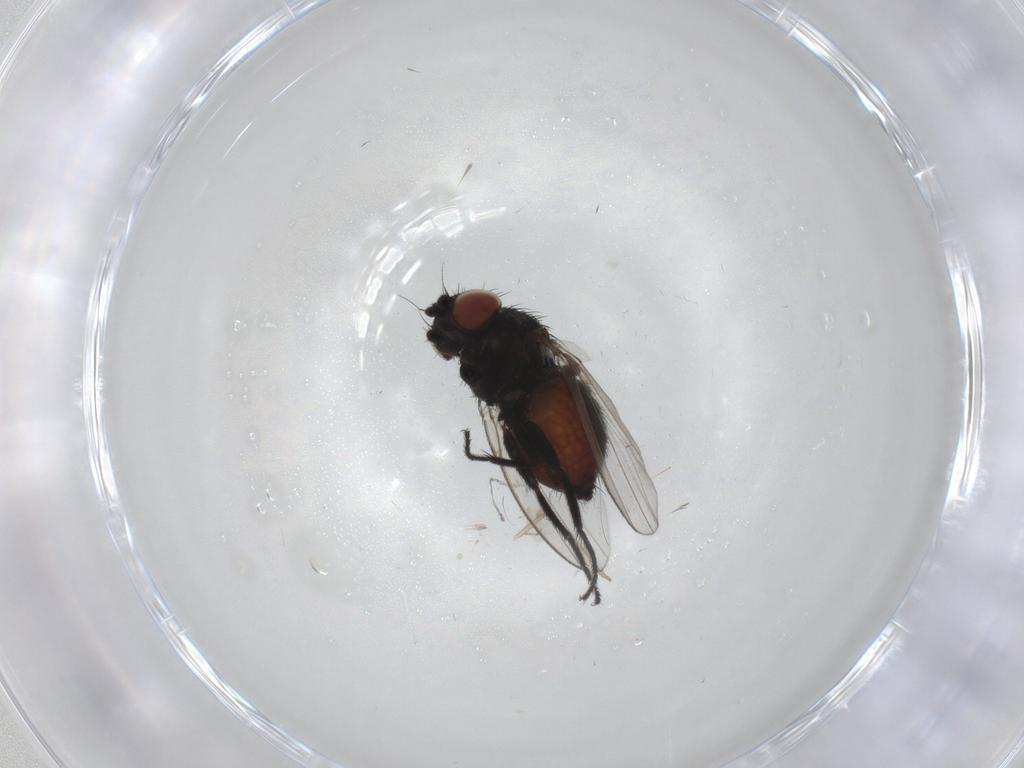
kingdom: Animalia
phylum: Arthropoda
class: Insecta
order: Diptera
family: Milichiidae
